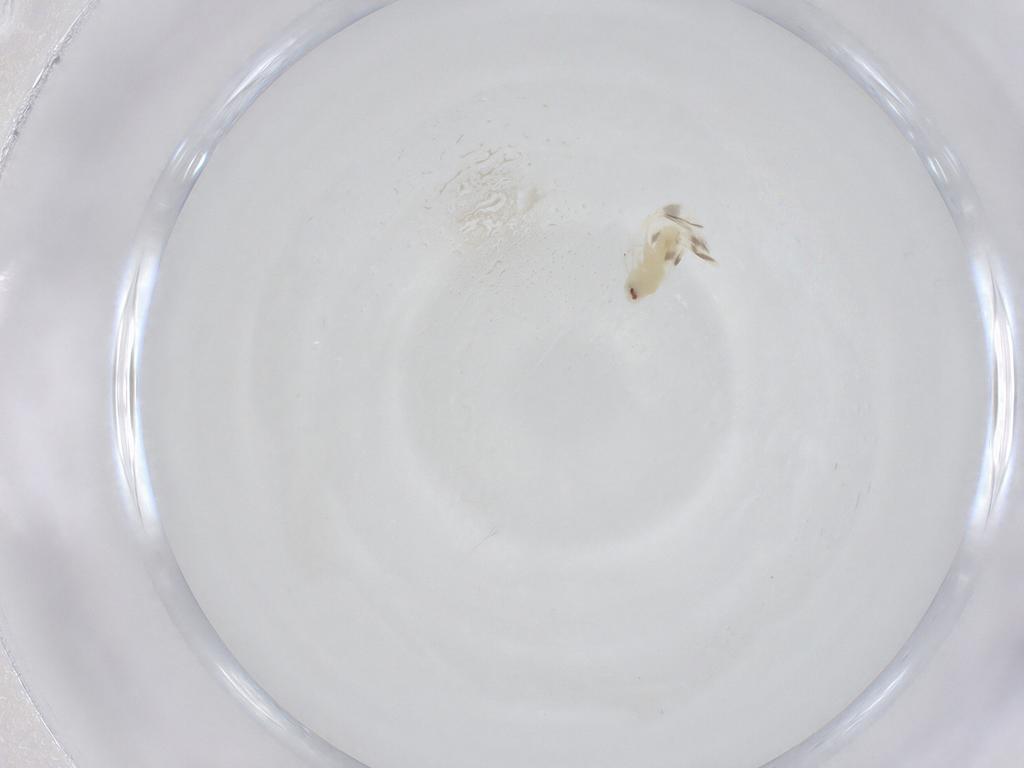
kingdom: Animalia
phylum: Arthropoda
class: Insecta
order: Hemiptera
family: Aleyrodidae
